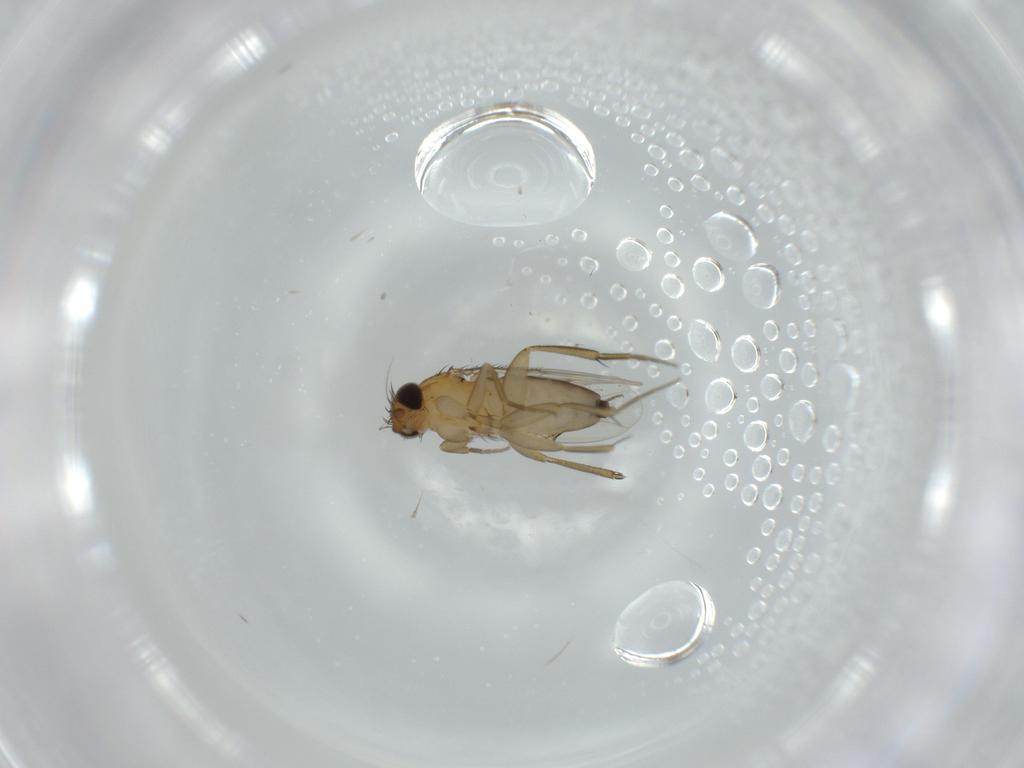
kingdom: Animalia
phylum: Arthropoda
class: Insecta
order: Diptera
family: Phoridae
